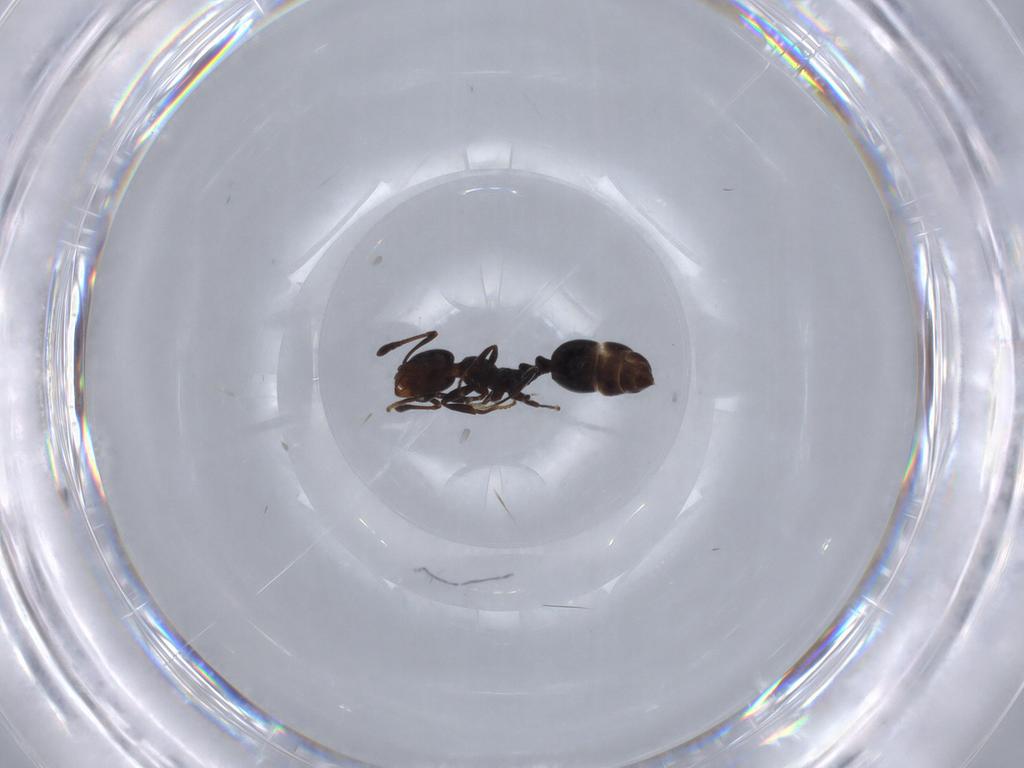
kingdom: Animalia
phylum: Arthropoda
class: Insecta
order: Hymenoptera
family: Formicidae
